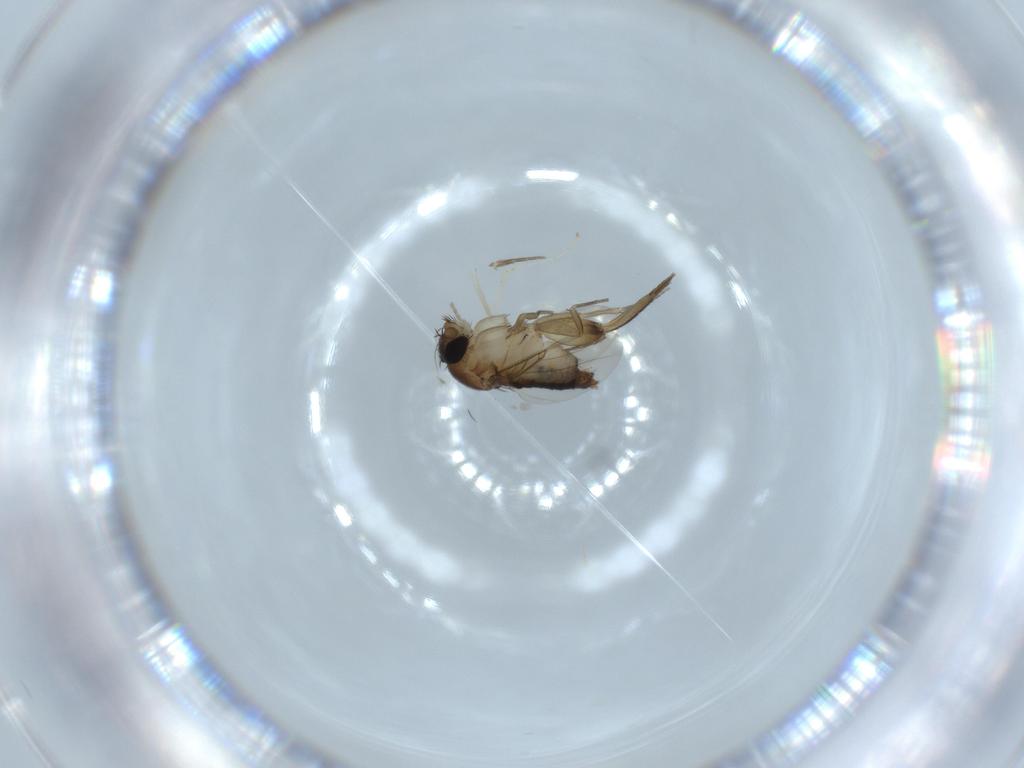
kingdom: Animalia
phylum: Arthropoda
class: Insecta
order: Diptera
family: Phoridae
